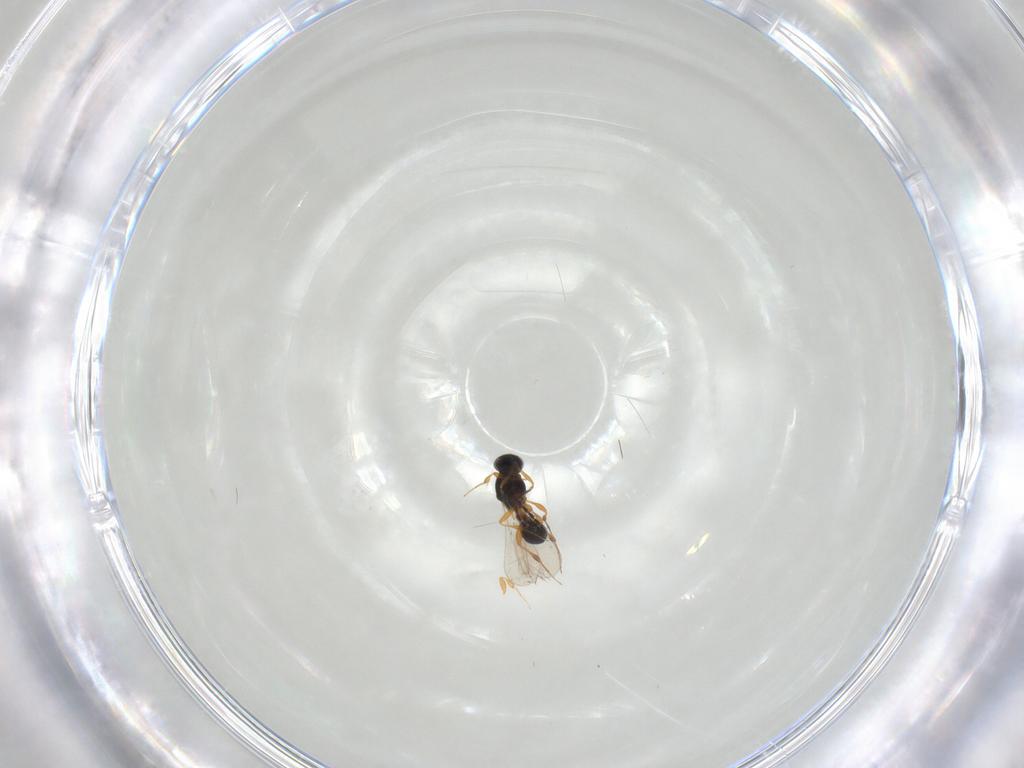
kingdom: Animalia
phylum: Arthropoda
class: Insecta
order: Hymenoptera
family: Platygastridae
